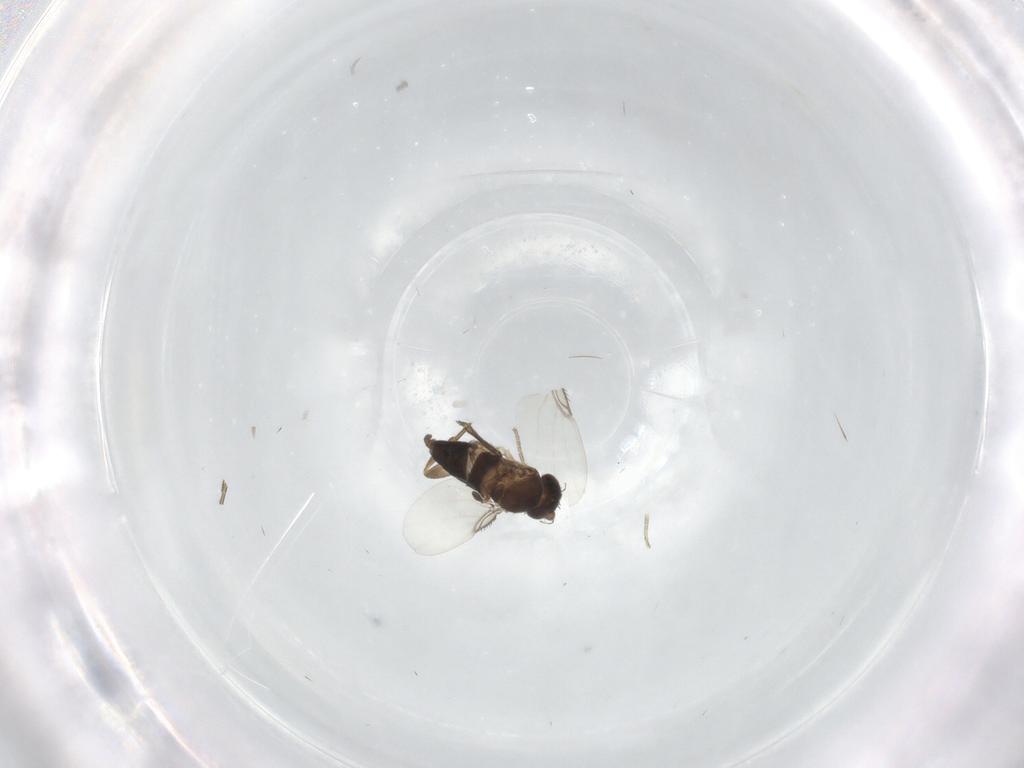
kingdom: Animalia
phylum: Arthropoda
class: Insecta
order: Diptera
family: Phoridae
